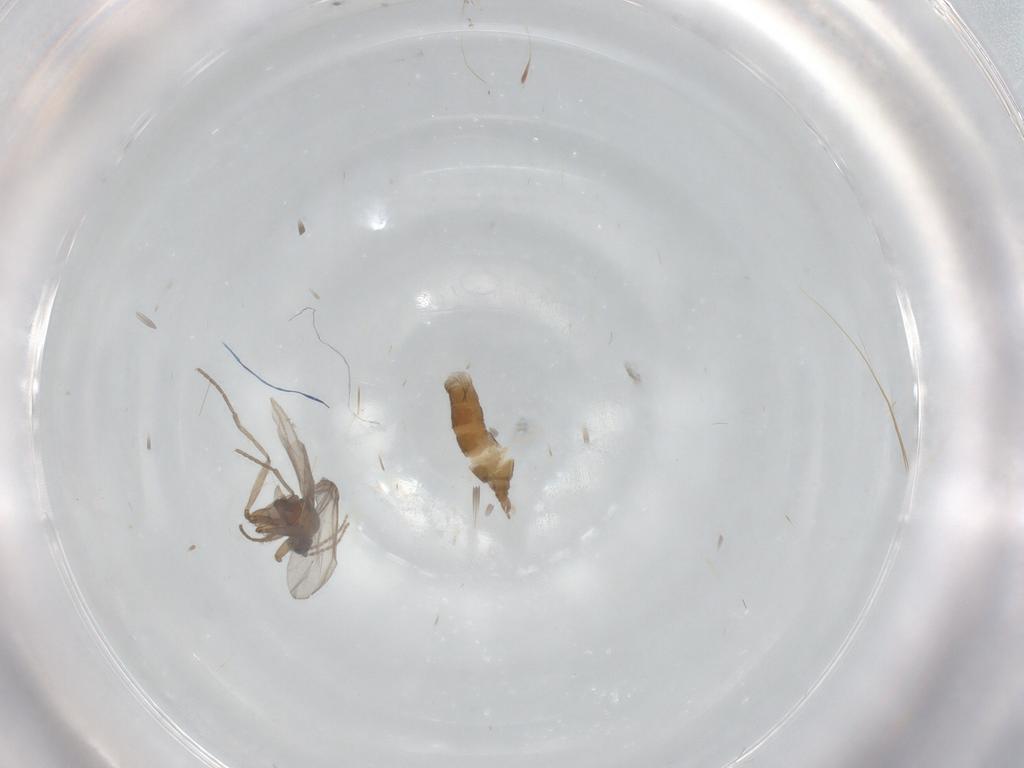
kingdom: Animalia
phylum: Arthropoda
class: Insecta
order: Diptera
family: Sciaridae
